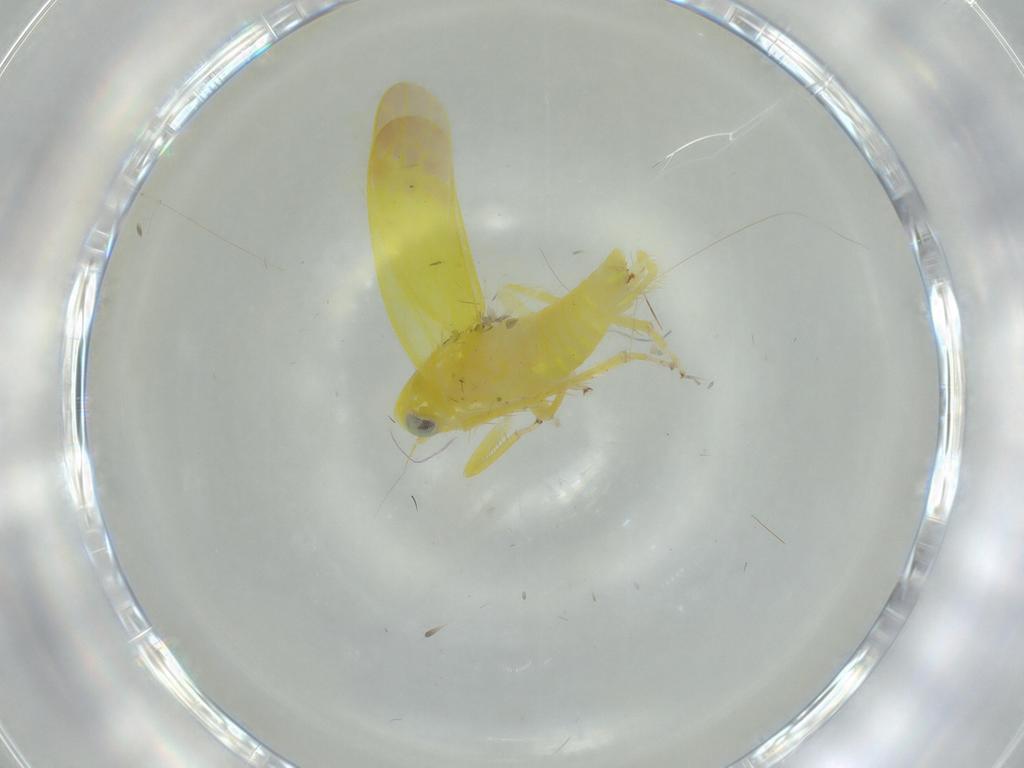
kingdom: Animalia
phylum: Arthropoda
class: Insecta
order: Hemiptera
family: Cicadellidae
